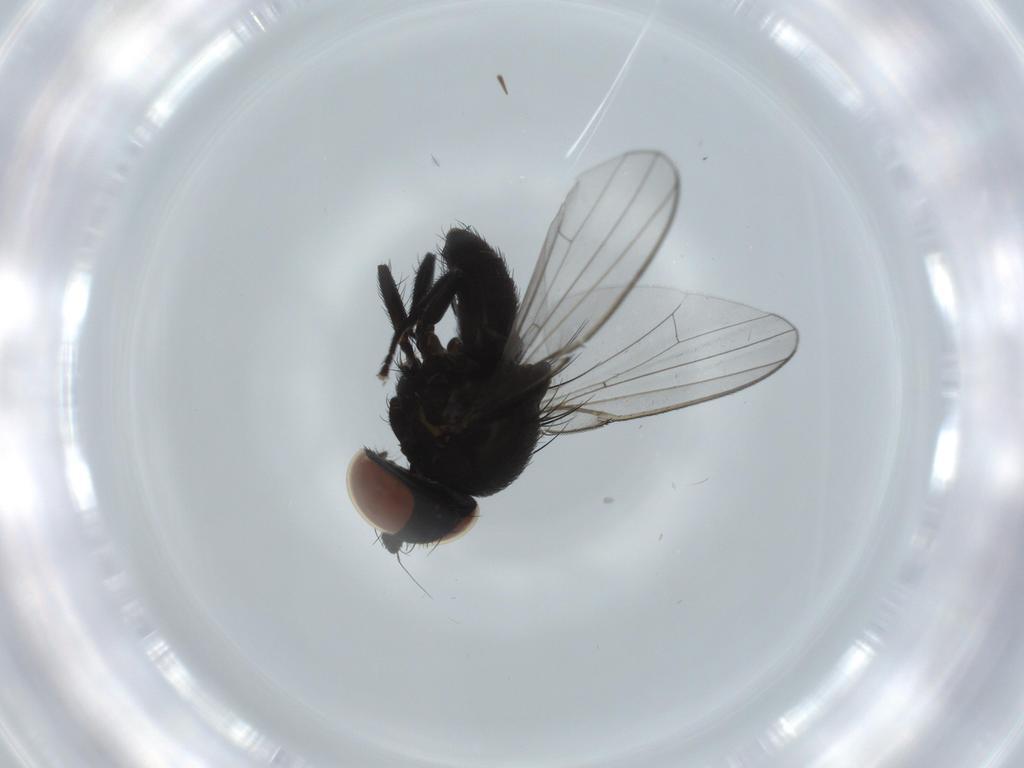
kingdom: Animalia
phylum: Arthropoda
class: Insecta
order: Diptera
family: Milichiidae
